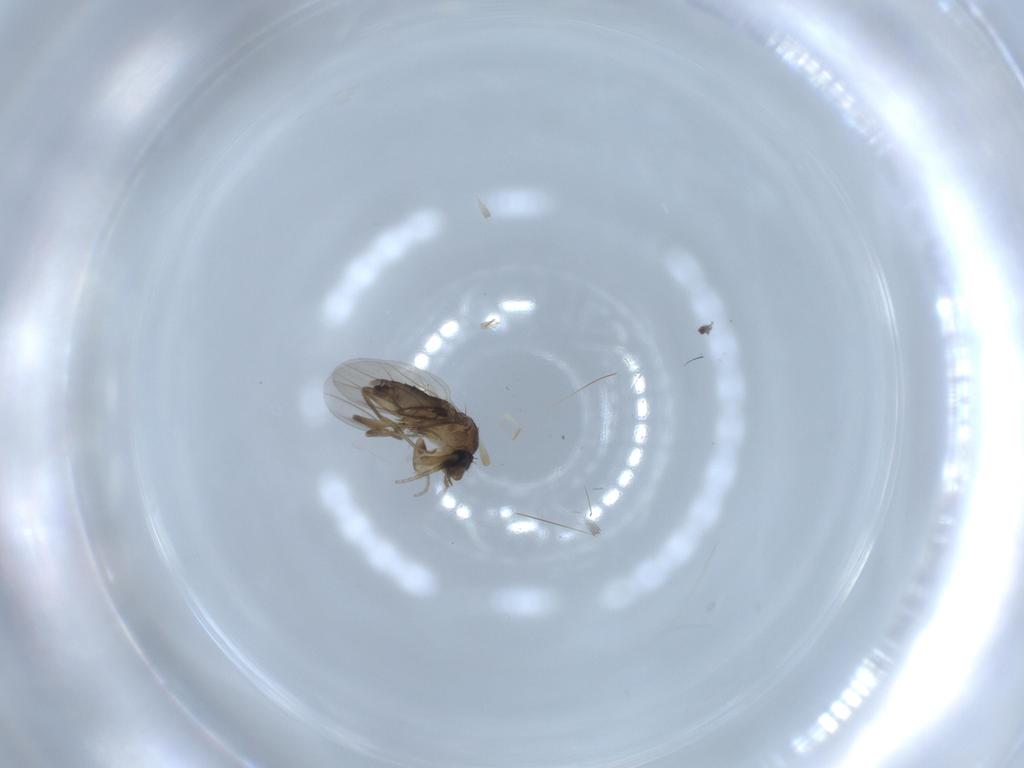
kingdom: Animalia
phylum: Arthropoda
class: Insecta
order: Diptera
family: Phoridae
